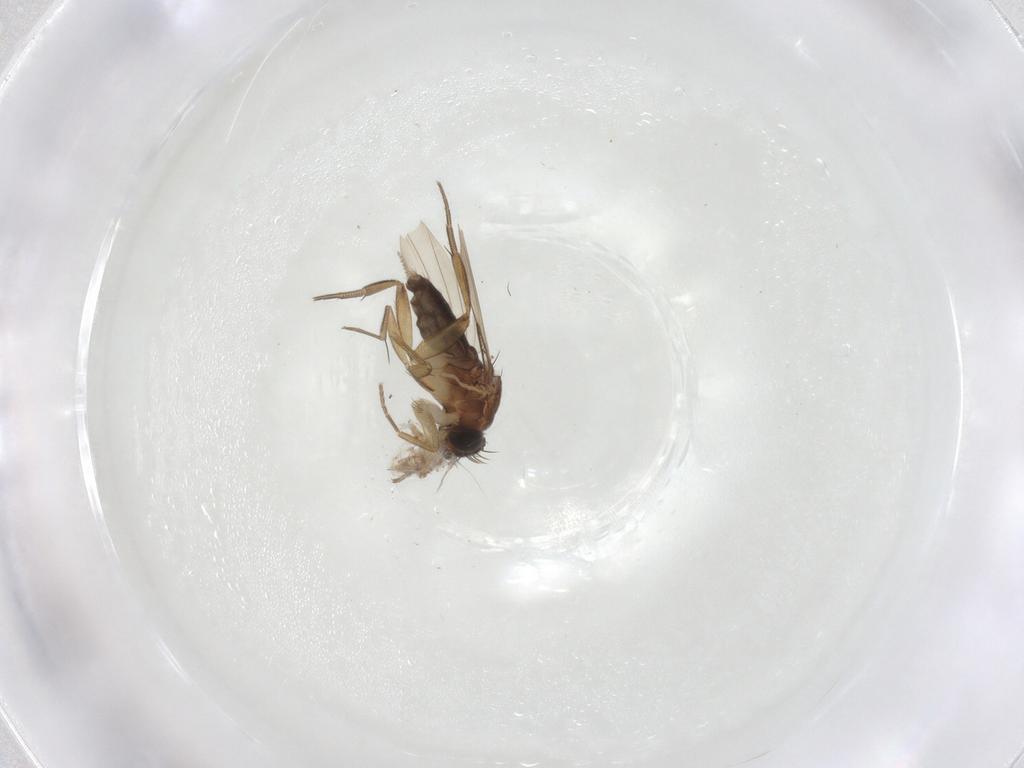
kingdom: Animalia
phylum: Arthropoda
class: Insecta
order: Diptera
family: Phoridae
